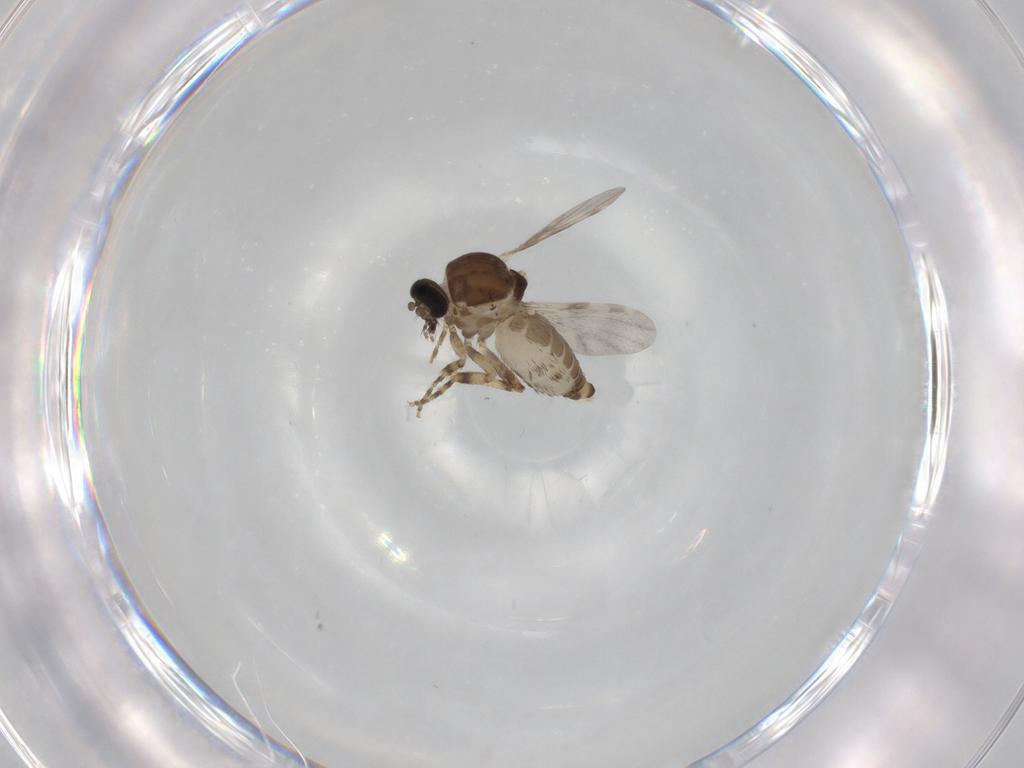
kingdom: Animalia
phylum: Arthropoda
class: Insecta
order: Diptera
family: Ceratopogonidae
